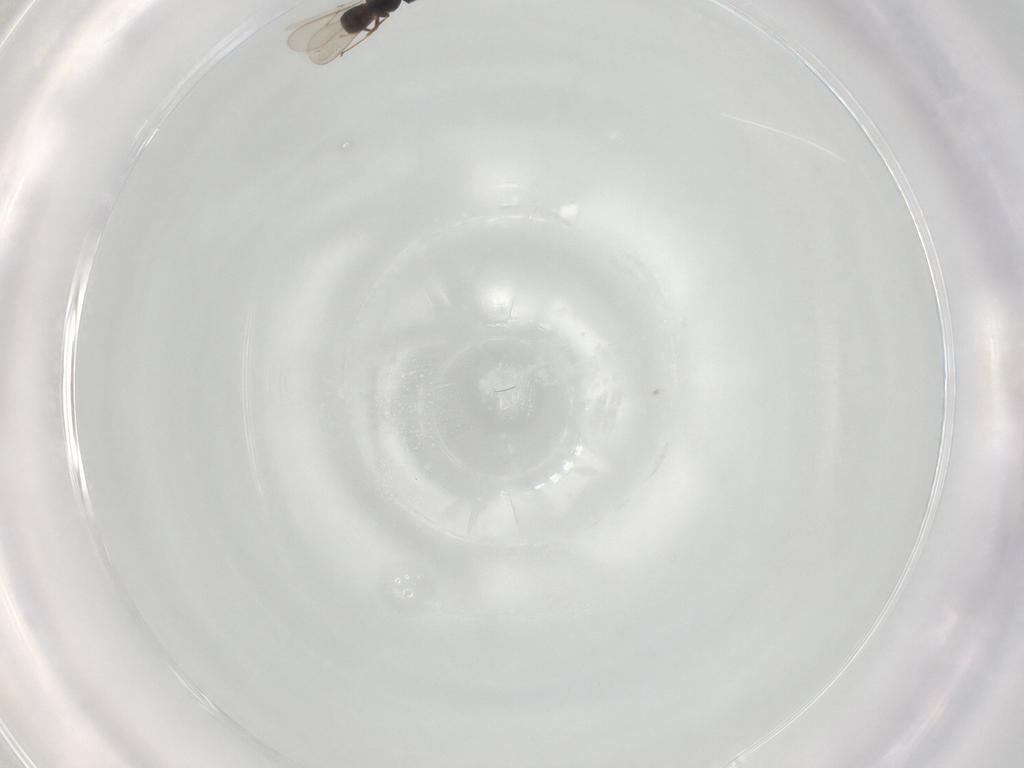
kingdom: Animalia
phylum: Arthropoda
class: Insecta
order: Hymenoptera
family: Scelionidae
